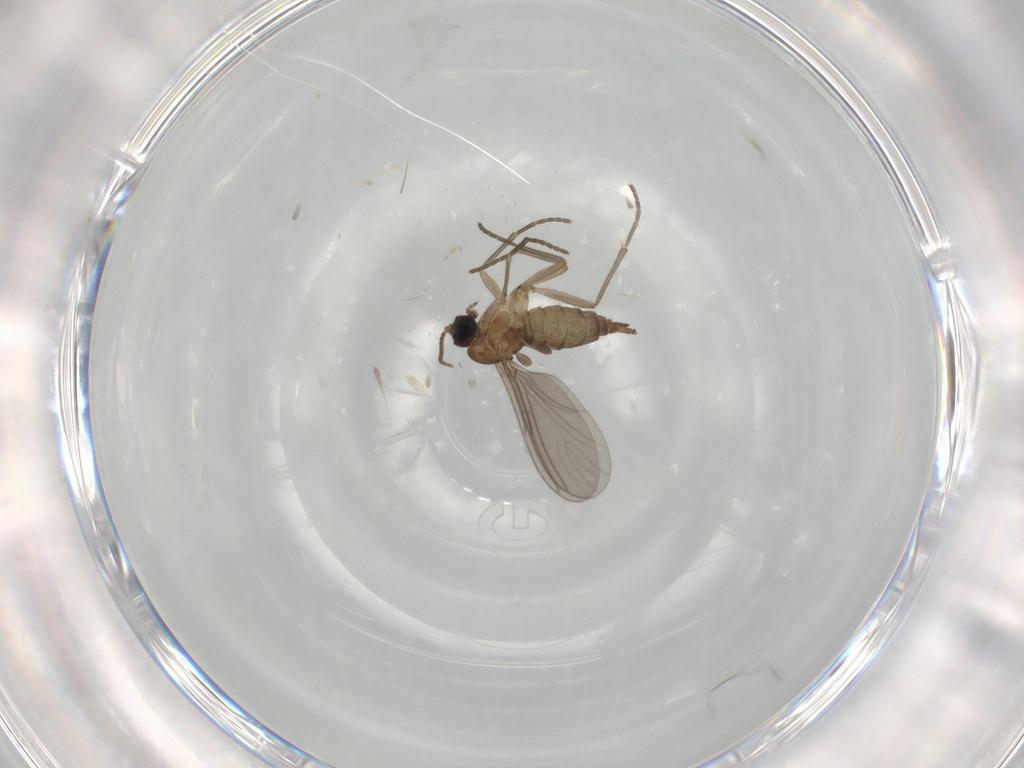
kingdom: Animalia
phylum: Arthropoda
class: Insecta
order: Diptera
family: Sciaridae
